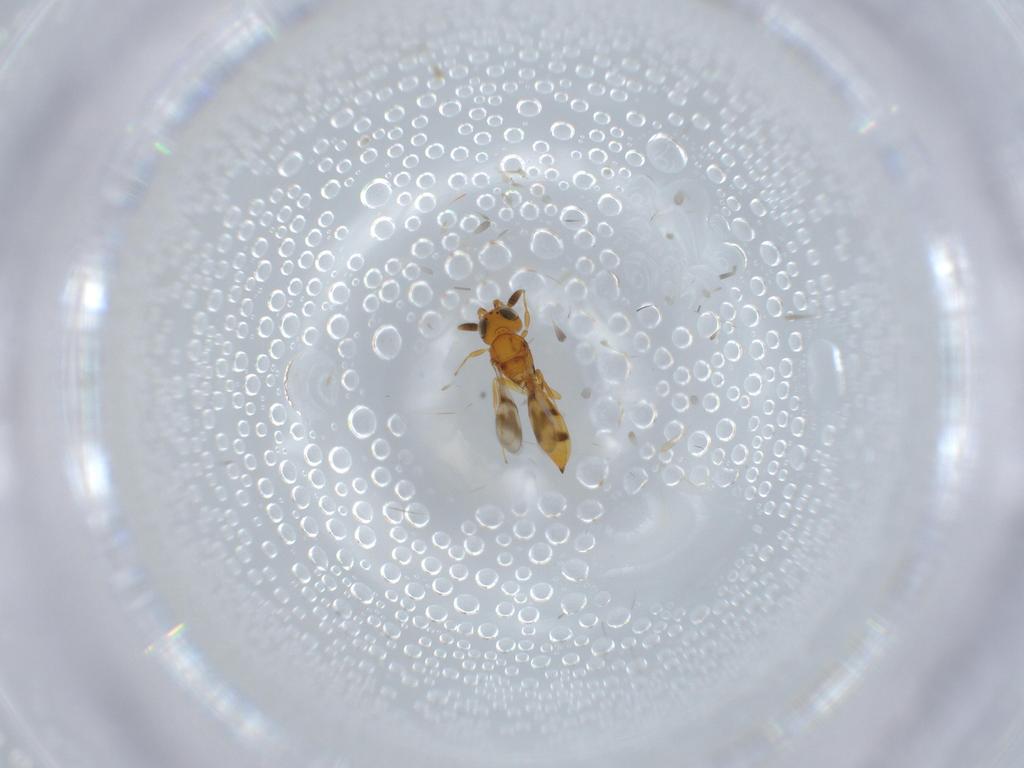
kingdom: Animalia
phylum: Arthropoda
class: Insecta
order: Hymenoptera
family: Scelionidae
